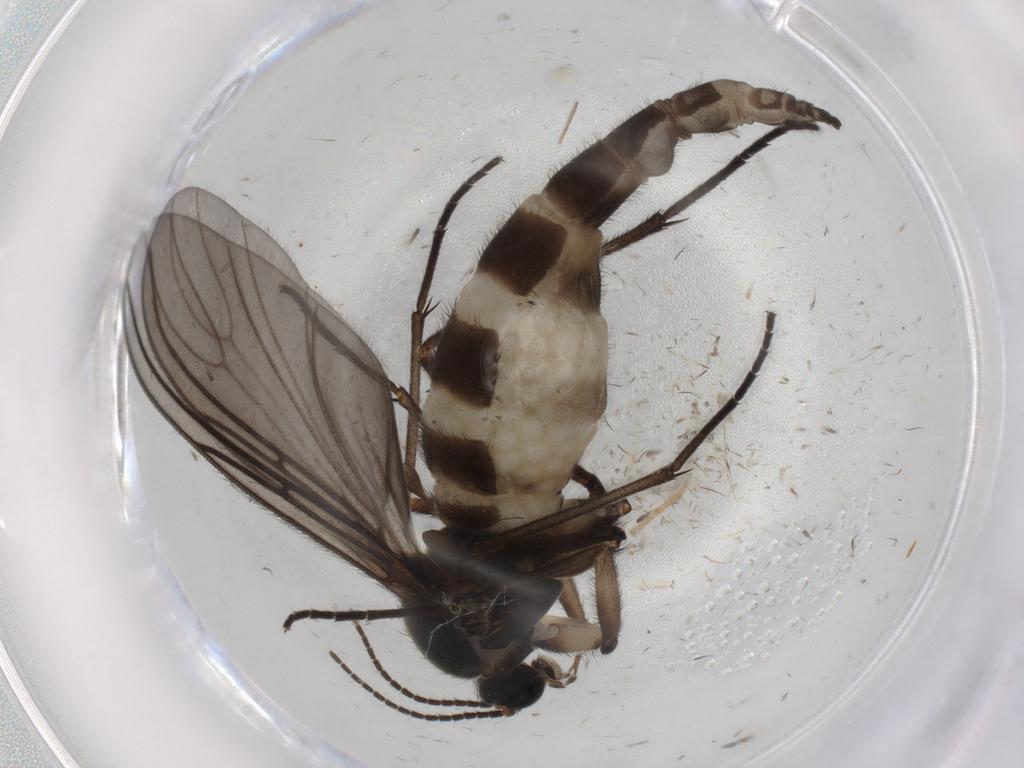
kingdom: Animalia
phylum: Arthropoda
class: Insecta
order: Diptera
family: Cecidomyiidae
